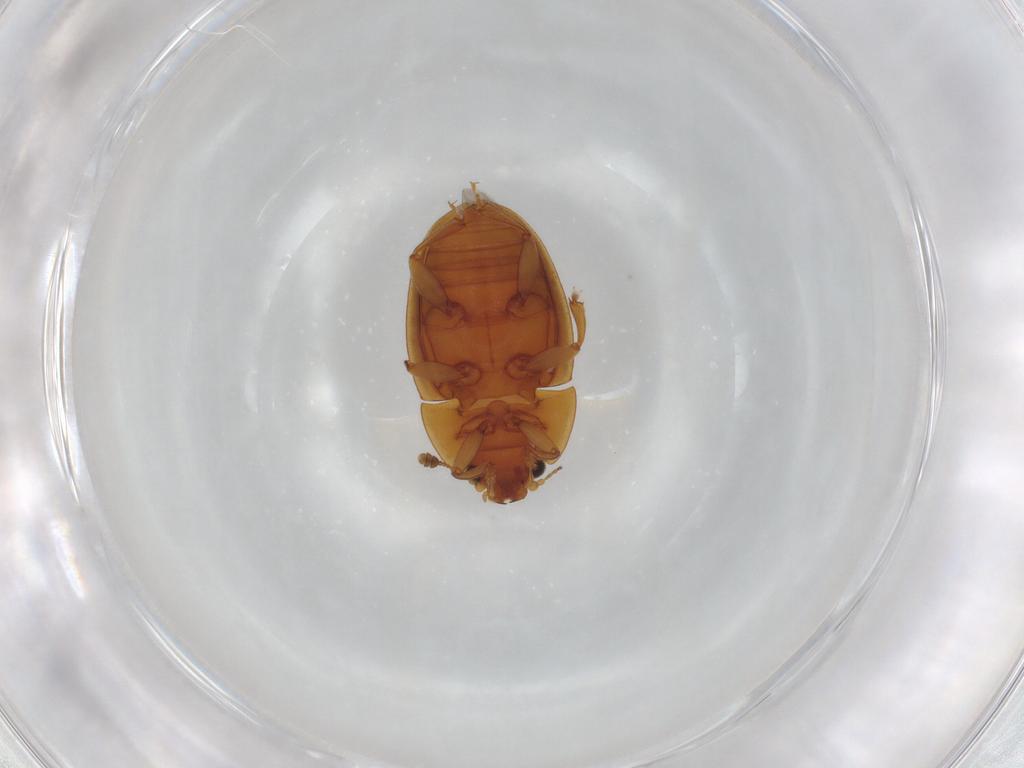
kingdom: Animalia
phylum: Arthropoda
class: Insecta
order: Coleoptera
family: Nitidulidae
